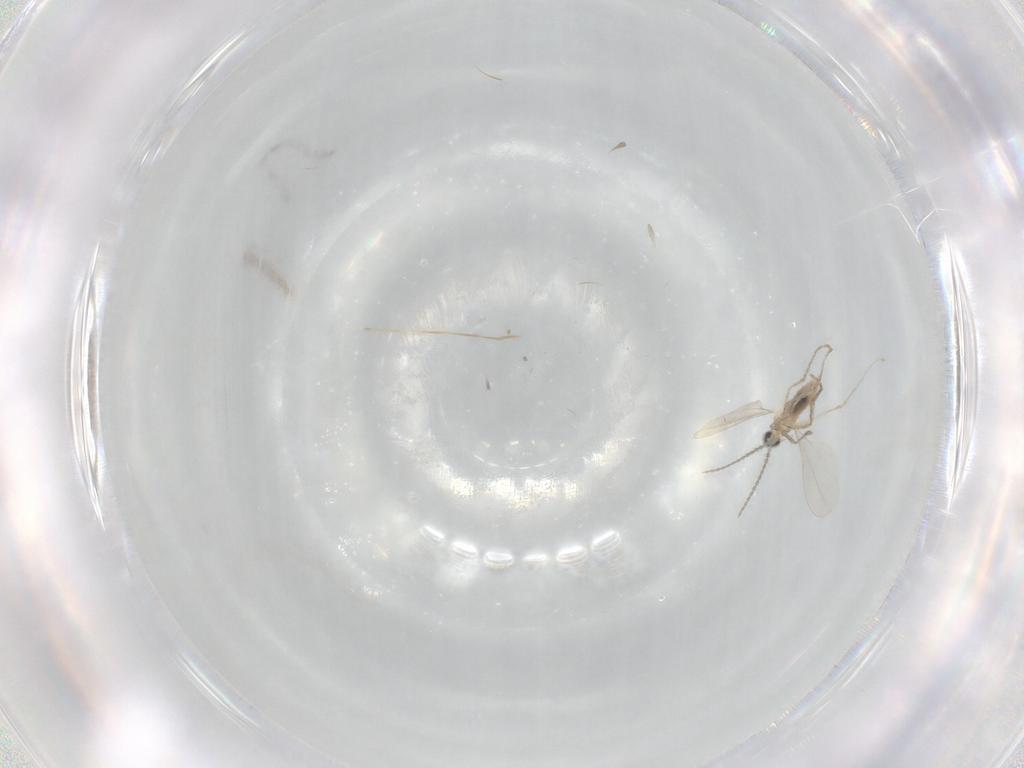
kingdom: Animalia
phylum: Arthropoda
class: Insecta
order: Diptera
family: Chironomidae
